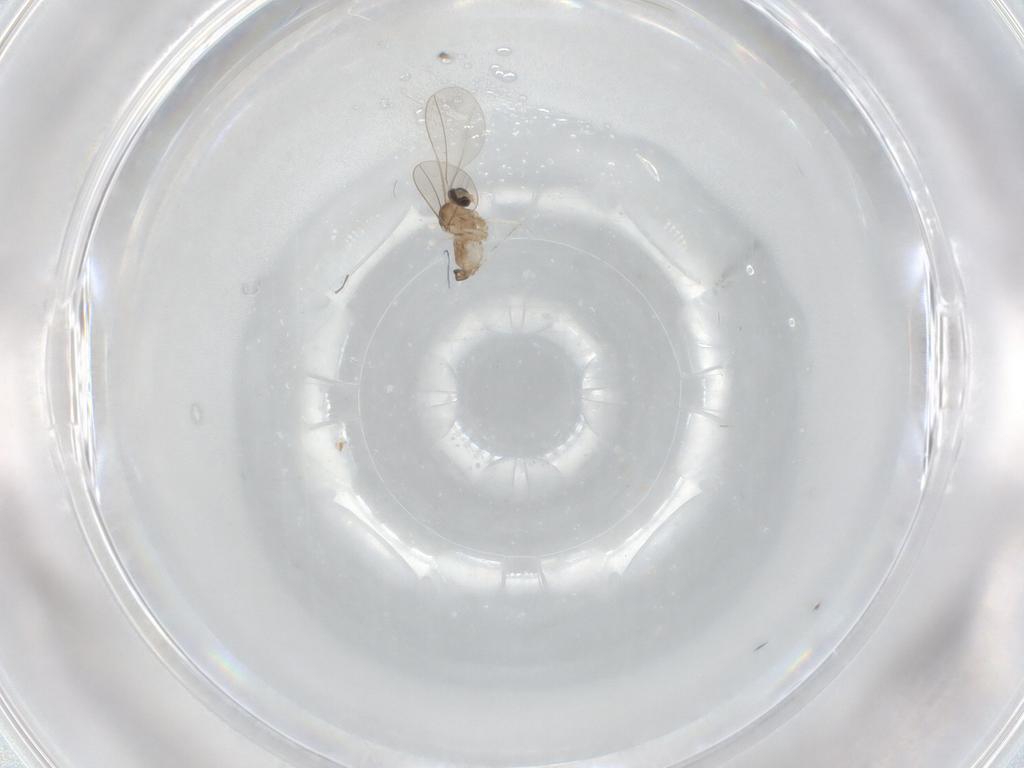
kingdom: Animalia
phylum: Arthropoda
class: Insecta
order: Diptera
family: Cecidomyiidae
